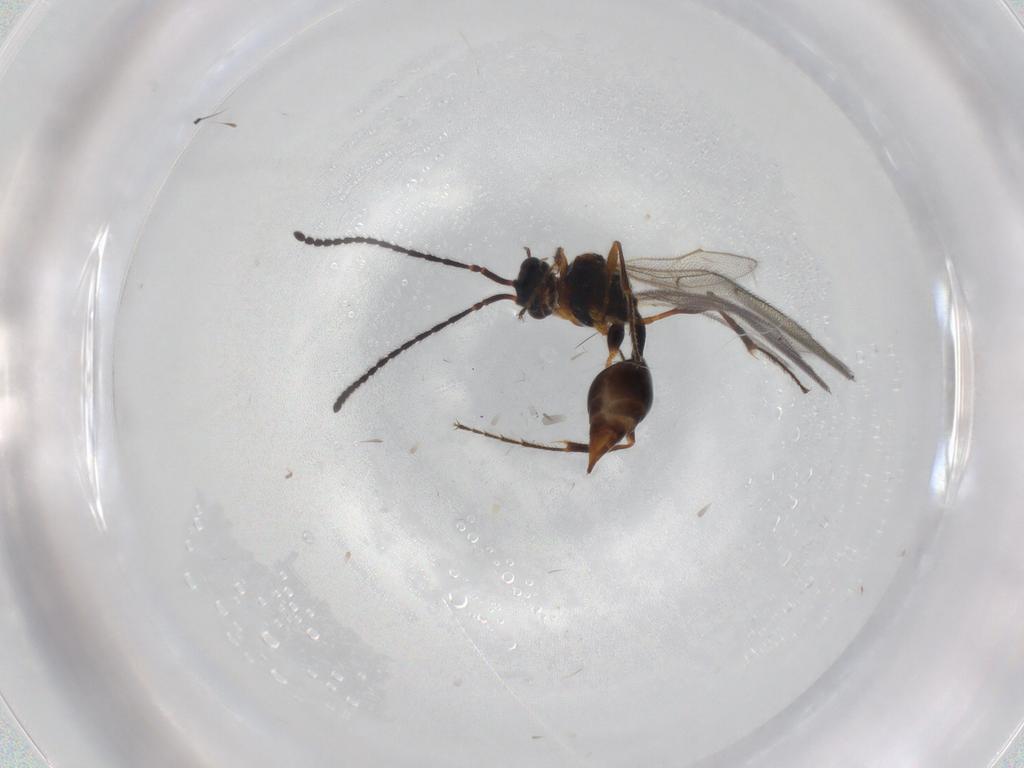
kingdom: Animalia
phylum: Arthropoda
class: Insecta
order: Hymenoptera
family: Diapriidae
